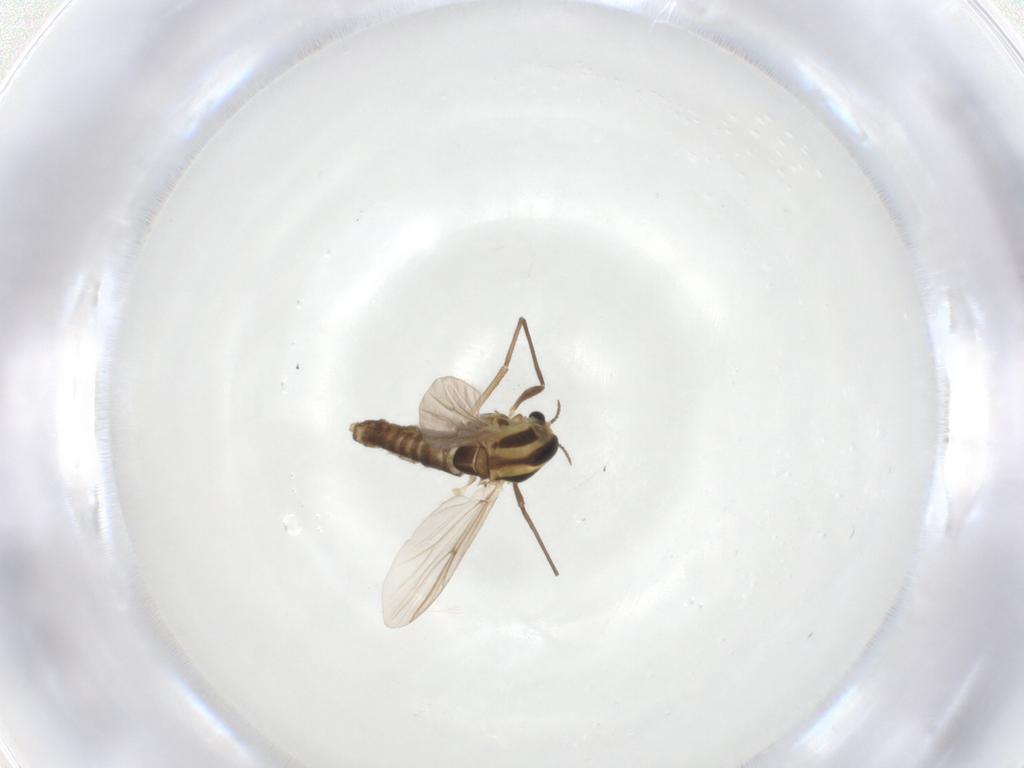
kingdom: Animalia
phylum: Arthropoda
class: Insecta
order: Diptera
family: Chironomidae
